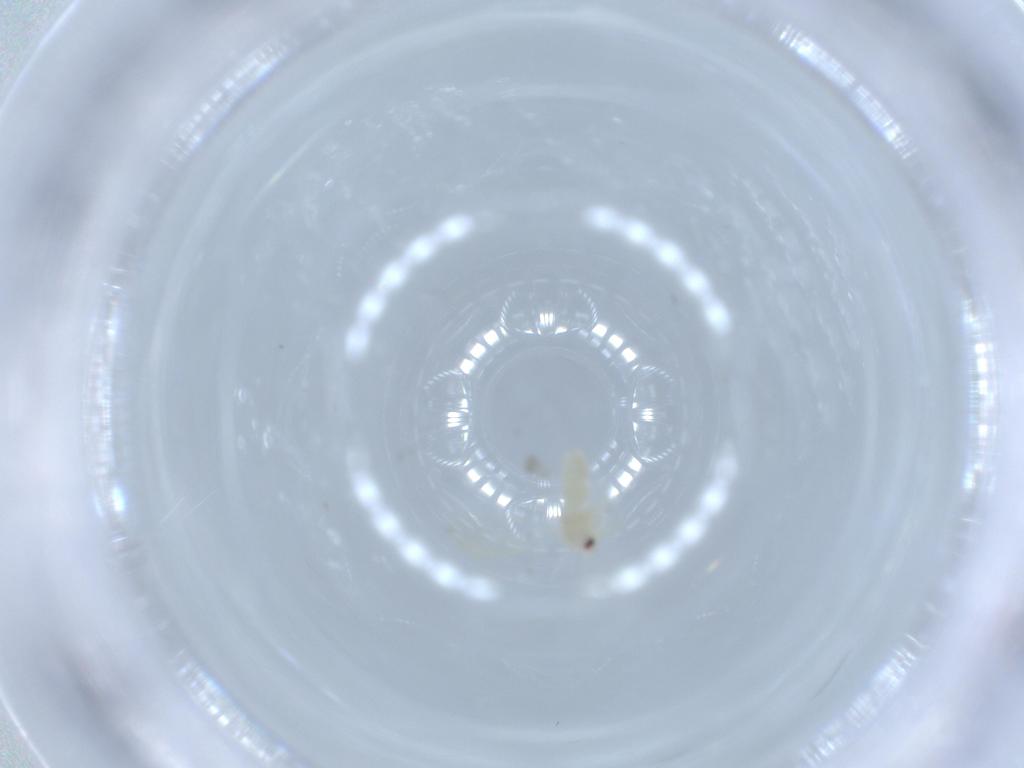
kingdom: Animalia
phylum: Arthropoda
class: Insecta
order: Hemiptera
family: Aleyrodidae
